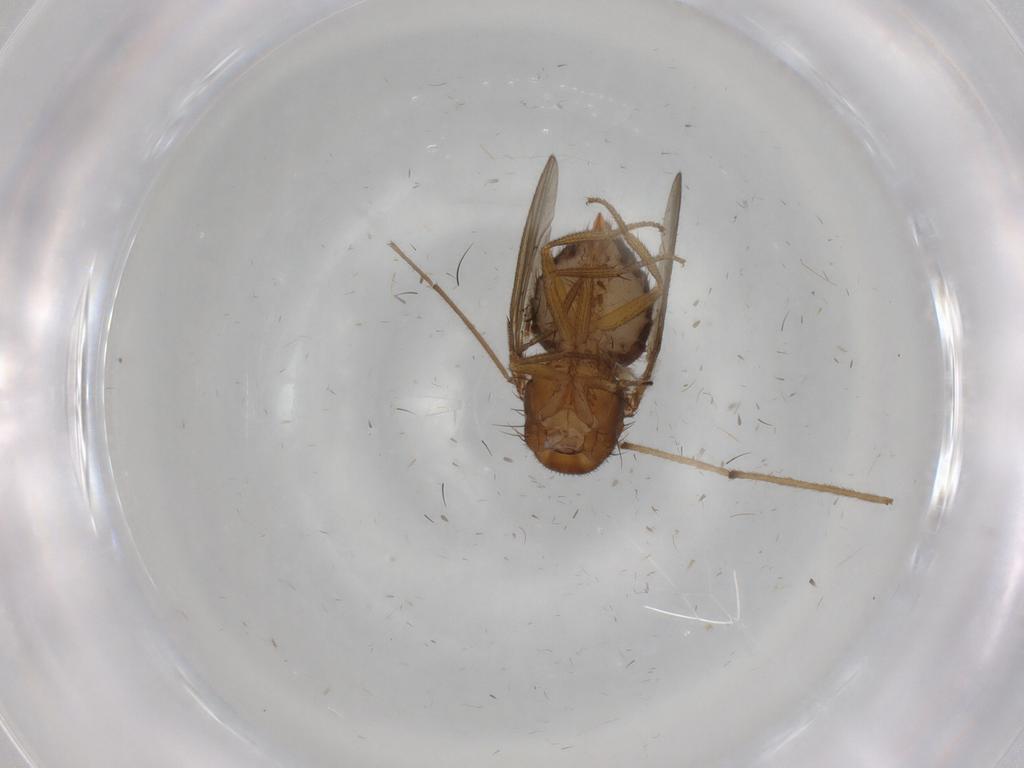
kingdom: Animalia
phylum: Arthropoda
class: Insecta
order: Diptera
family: Drosophilidae
